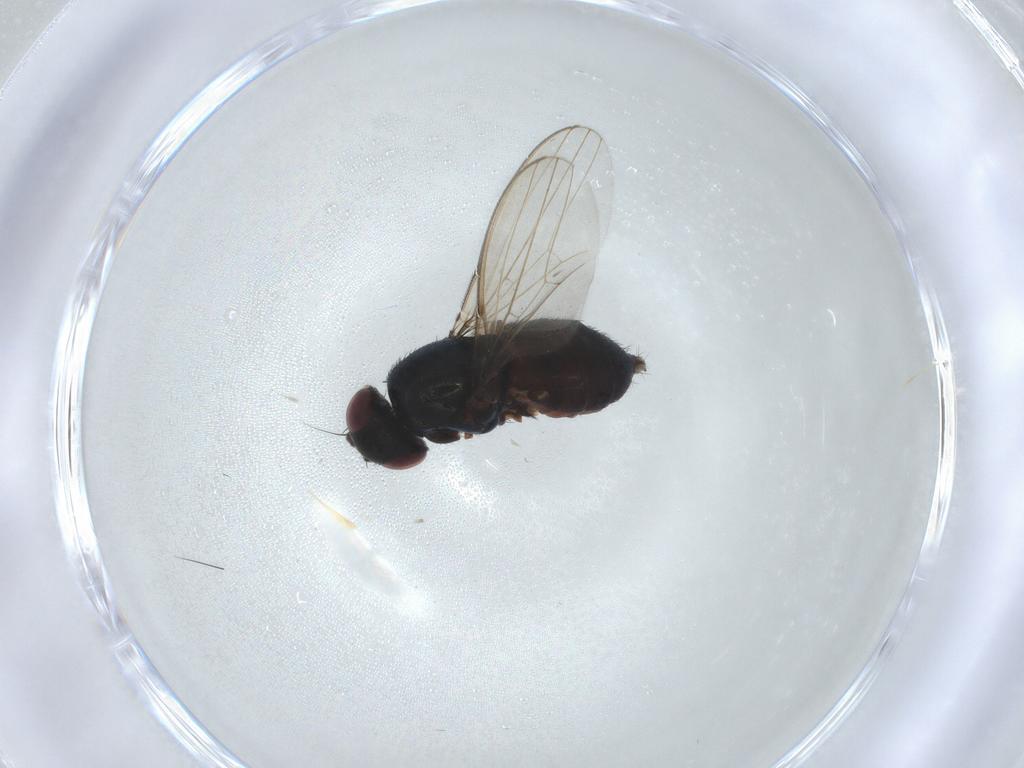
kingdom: Animalia
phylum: Arthropoda
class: Insecta
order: Diptera
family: Chloropidae
